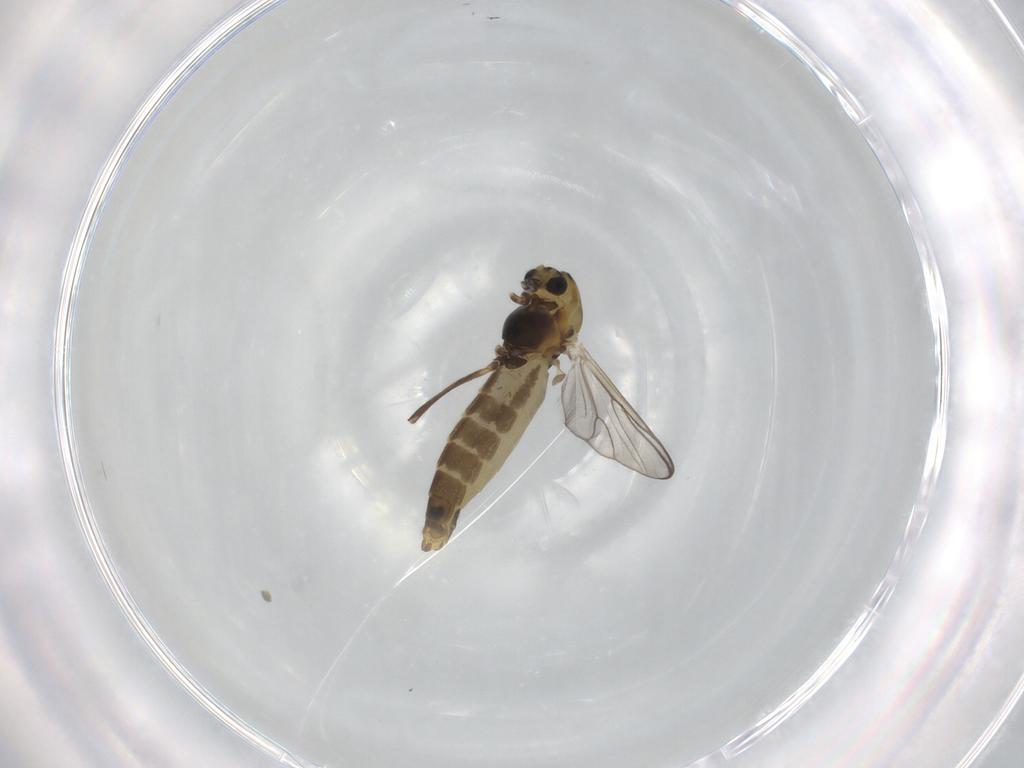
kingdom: Animalia
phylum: Arthropoda
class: Insecta
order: Diptera
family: Chironomidae
